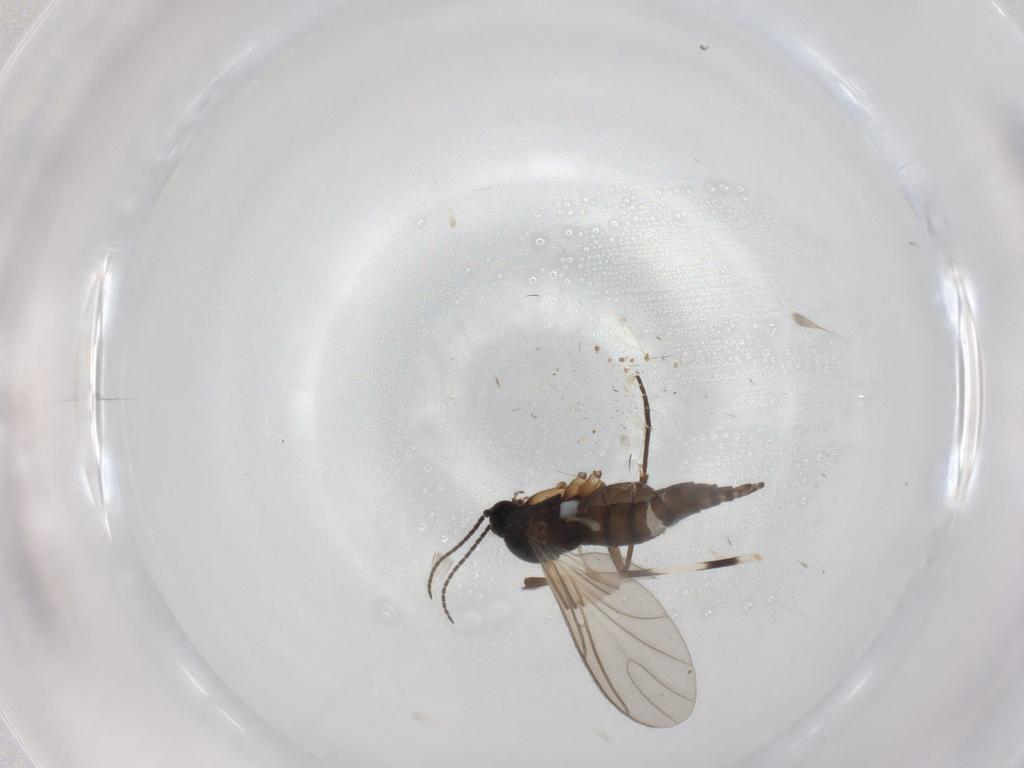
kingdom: Animalia
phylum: Arthropoda
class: Insecta
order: Diptera
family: Sciaridae
